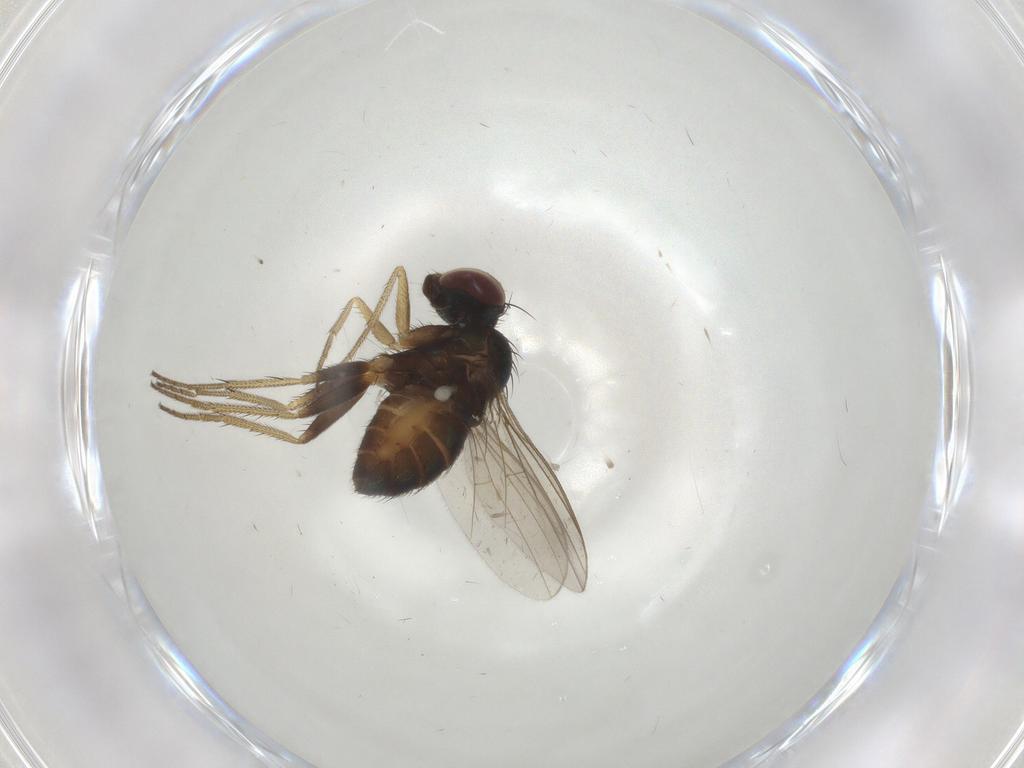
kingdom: Animalia
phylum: Arthropoda
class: Insecta
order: Diptera
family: Dolichopodidae
